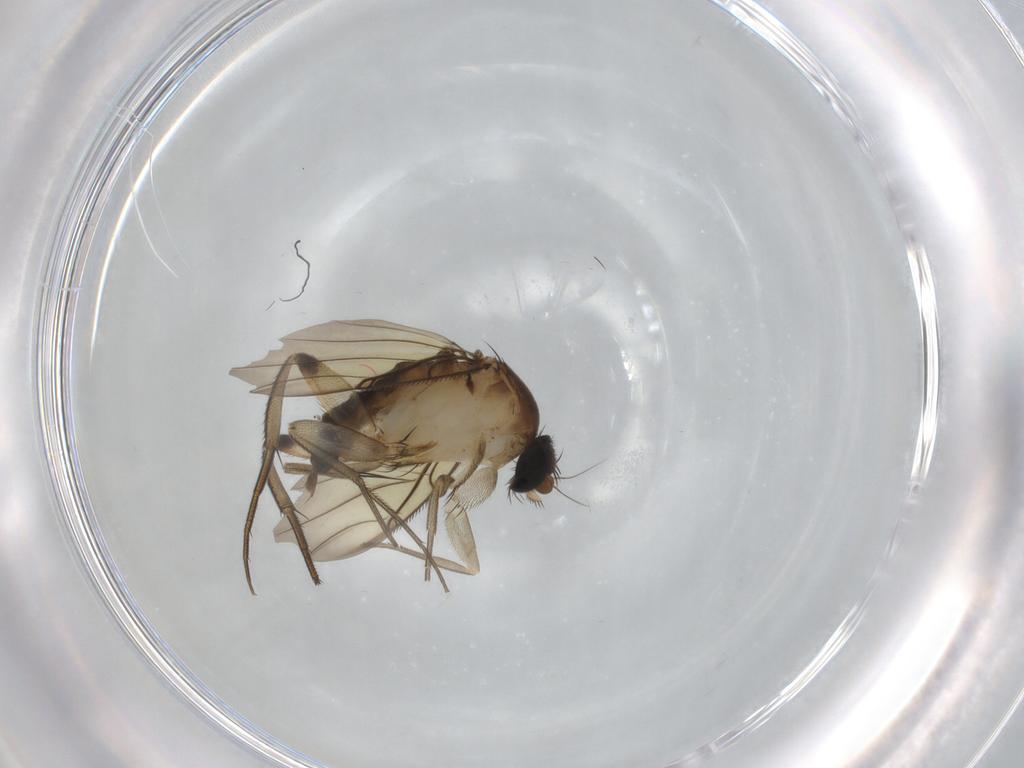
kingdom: Animalia
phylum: Arthropoda
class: Insecta
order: Diptera
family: Phoridae
